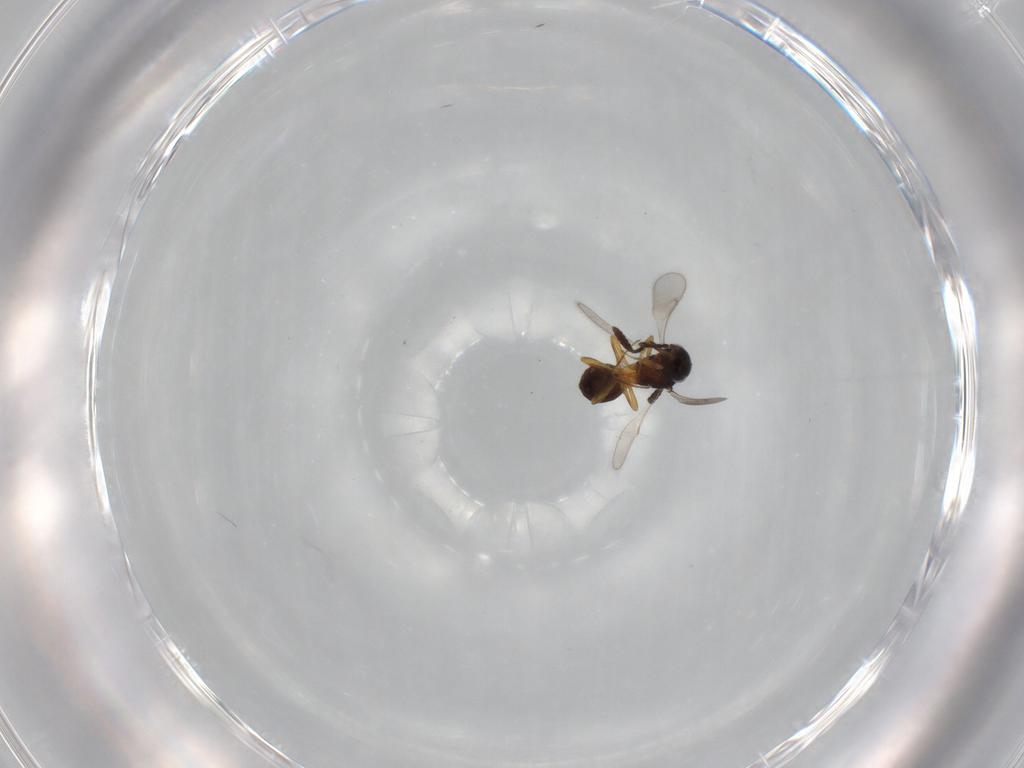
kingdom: Animalia
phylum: Arthropoda
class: Insecta
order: Hymenoptera
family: Scelionidae
